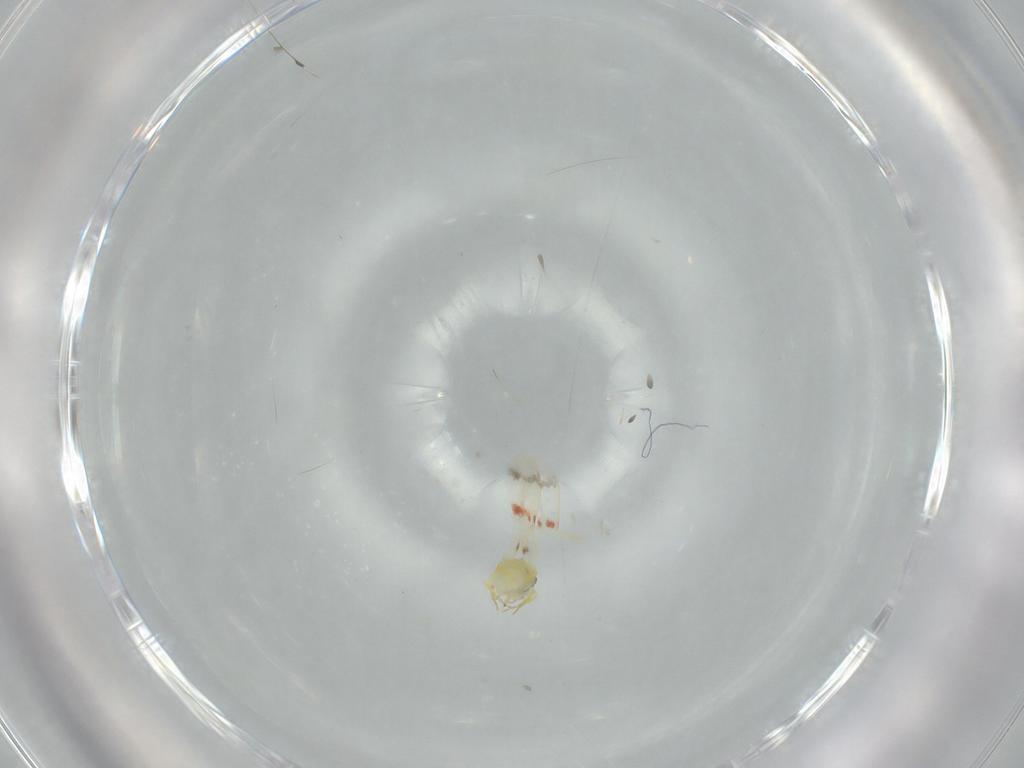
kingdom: Animalia
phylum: Arthropoda
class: Insecta
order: Hemiptera
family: Aleyrodidae
